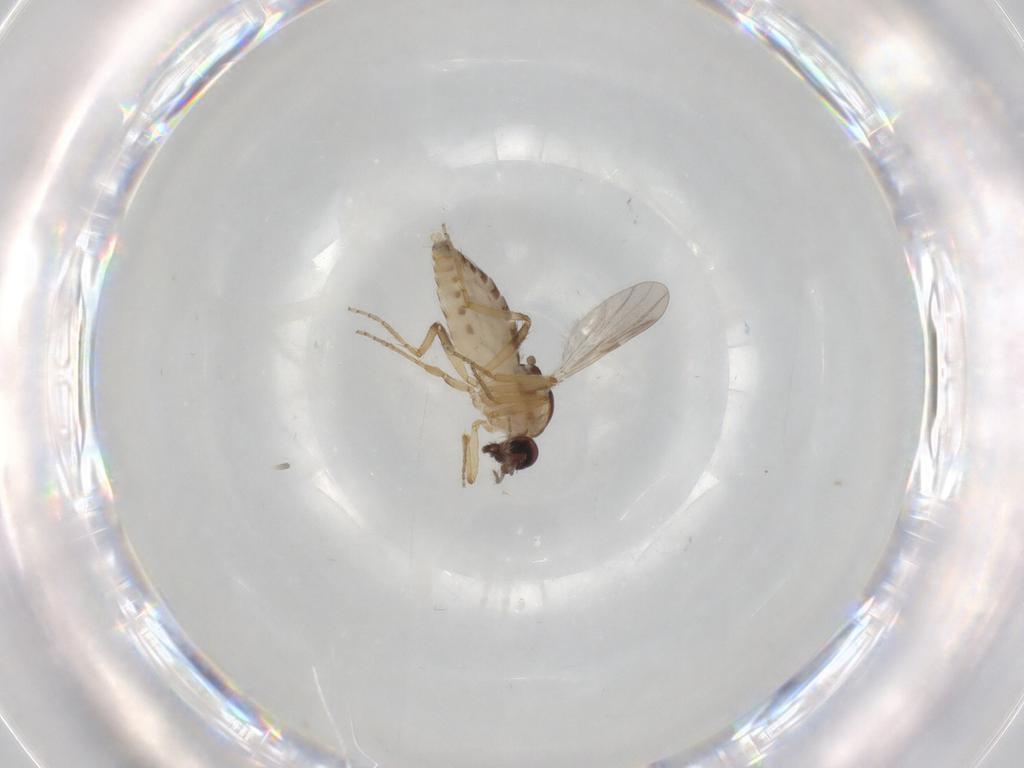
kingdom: Animalia
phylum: Arthropoda
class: Insecta
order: Diptera
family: Ceratopogonidae
